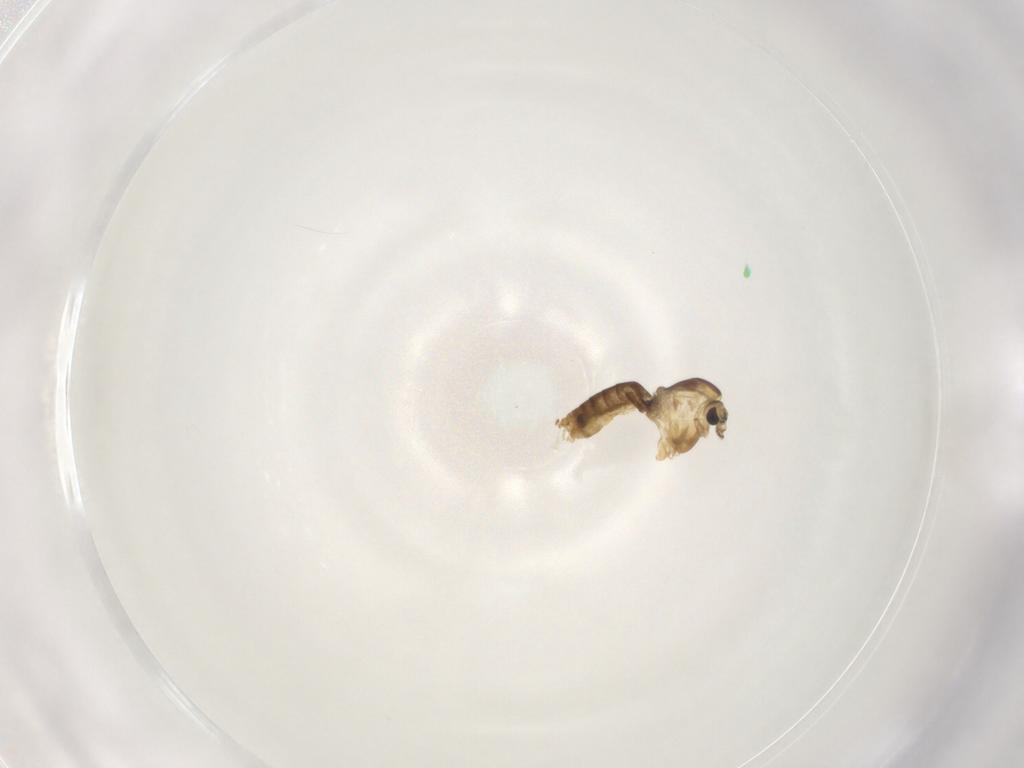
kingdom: Animalia
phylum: Arthropoda
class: Insecta
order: Diptera
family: Chironomidae
